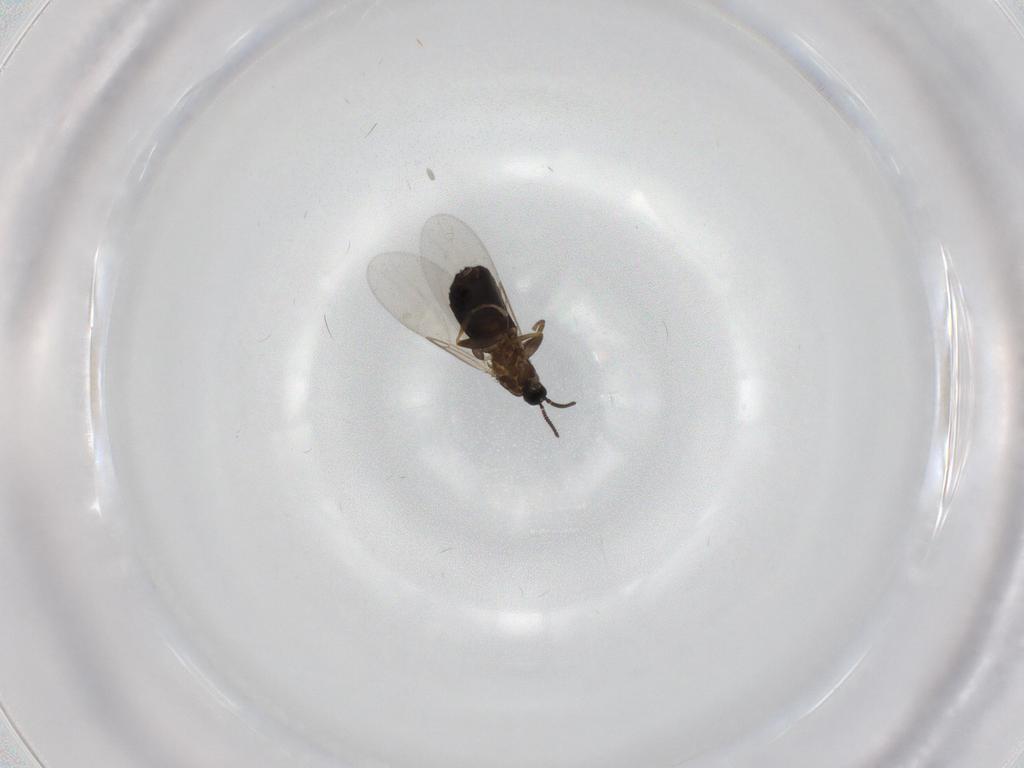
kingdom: Animalia
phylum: Arthropoda
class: Insecta
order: Diptera
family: Scatopsidae
